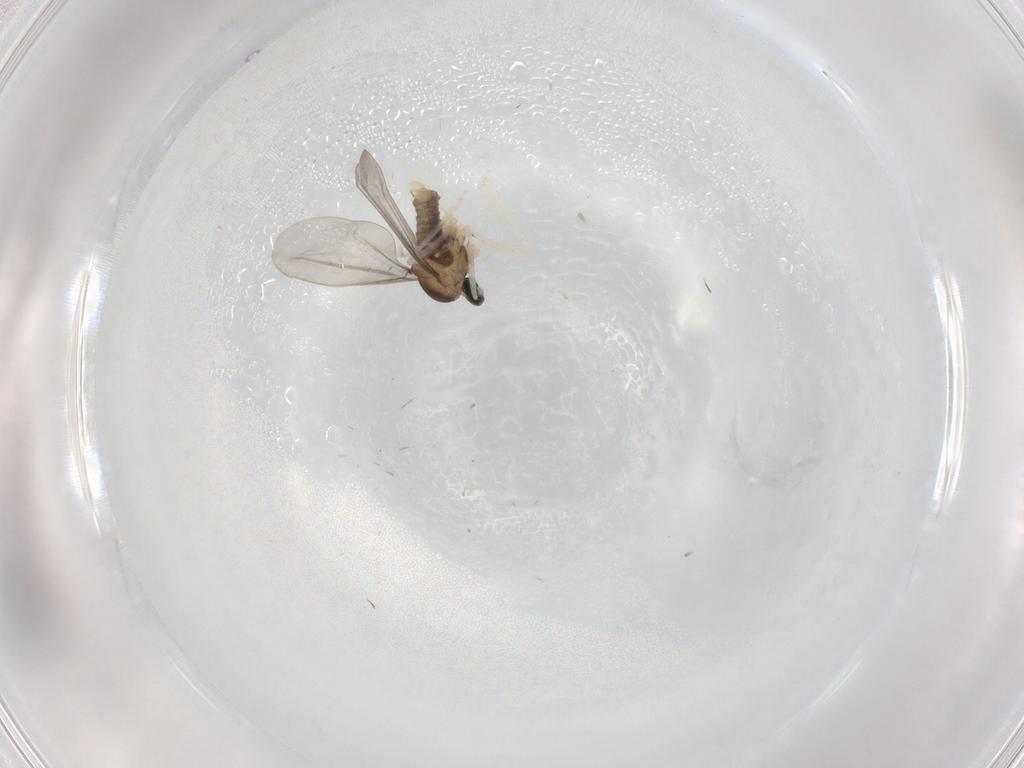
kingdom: Animalia
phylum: Arthropoda
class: Insecta
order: Diptera
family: Cecidomyiidae
